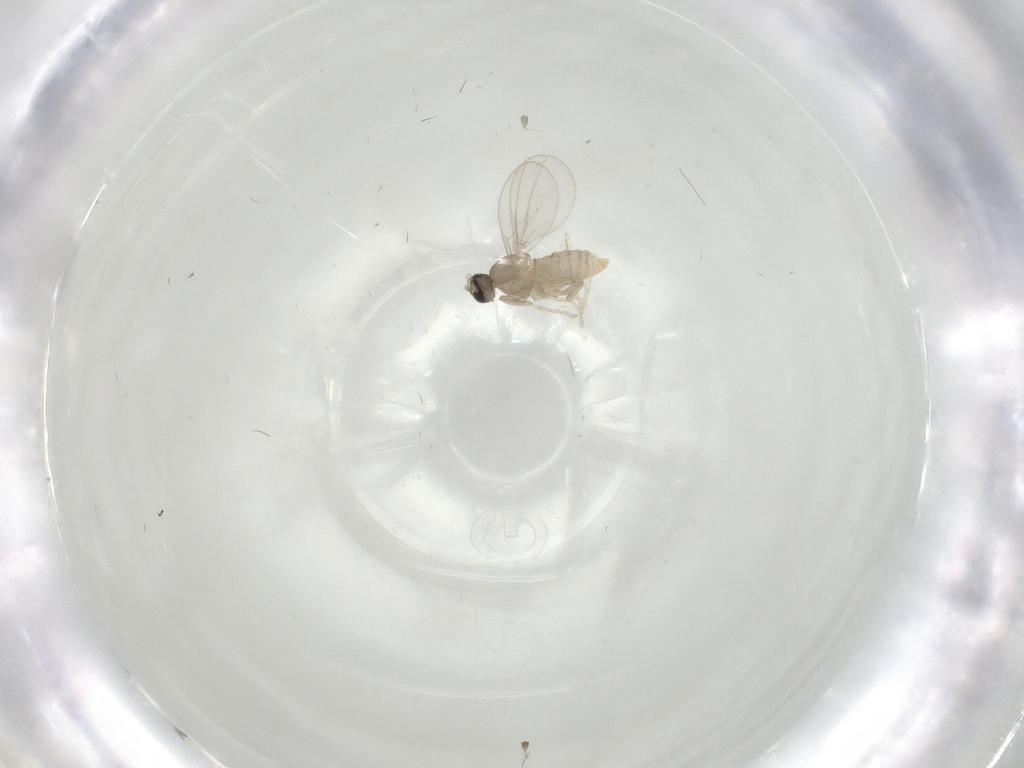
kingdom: Animalia
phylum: Arthropoda
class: Insecta
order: Diptera
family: Cecidomyiidae
